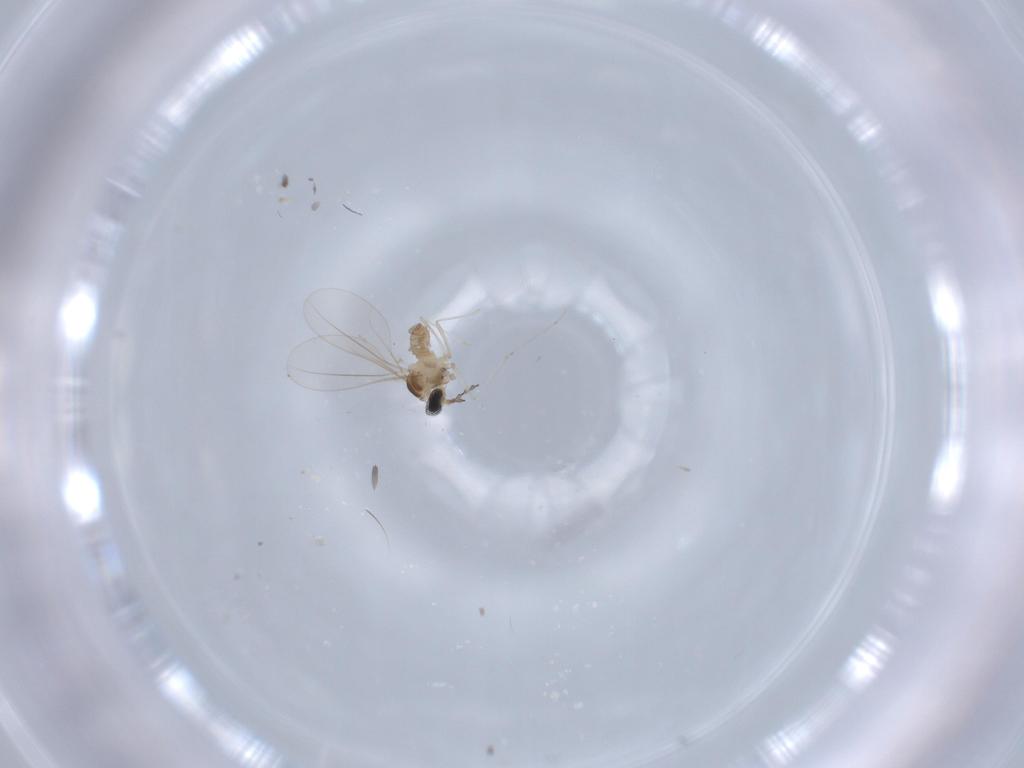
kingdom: Animalia
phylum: Arthropoda
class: Insecta
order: Diptera
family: Cecidomyiidae
